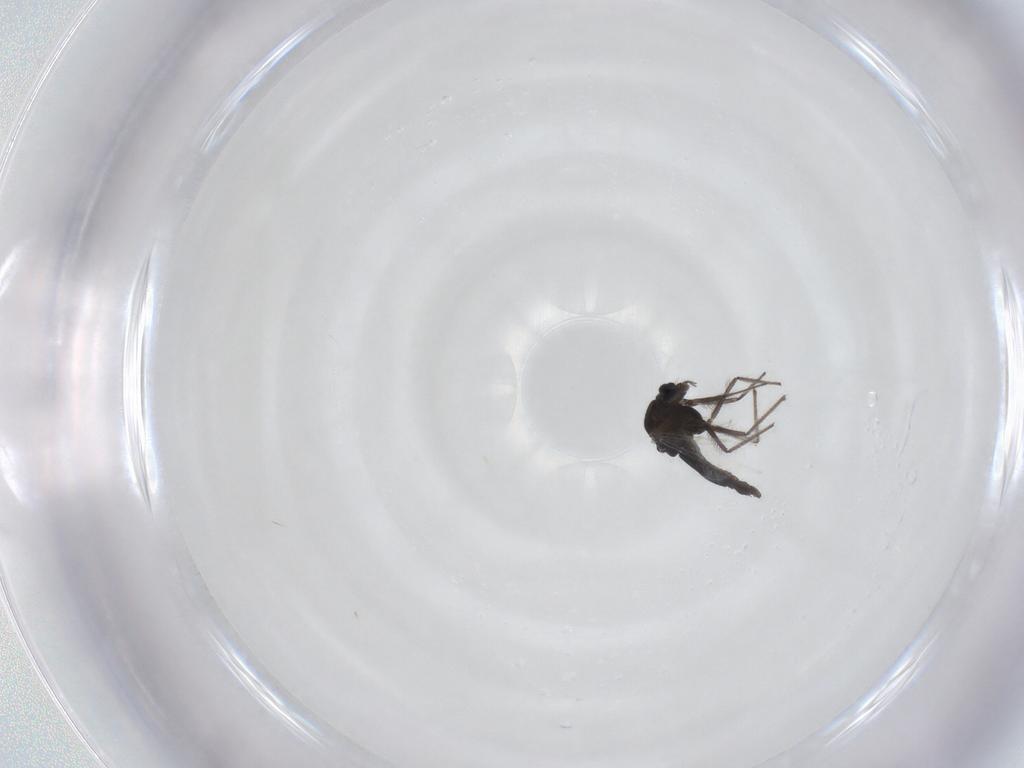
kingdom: Animalia
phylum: Arthropoda
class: Insecta
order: Diptera
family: Chironomidae
